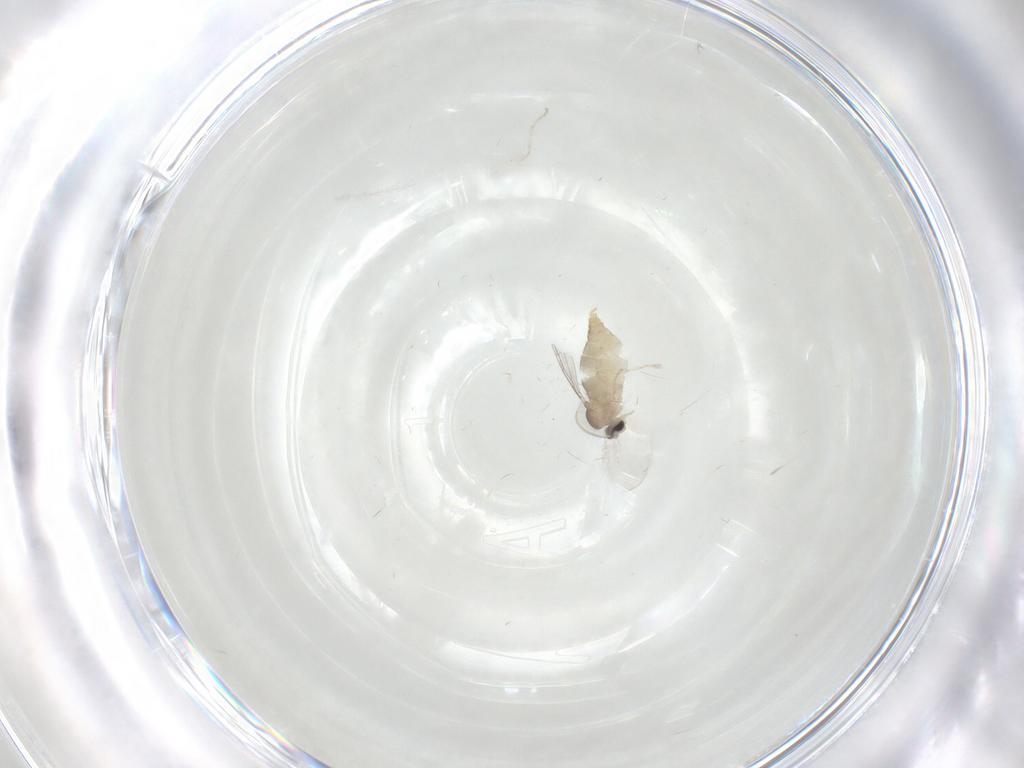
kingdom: Animalia
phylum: Arthropoda
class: Insecta
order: Diptera
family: Cecidomyiidae
